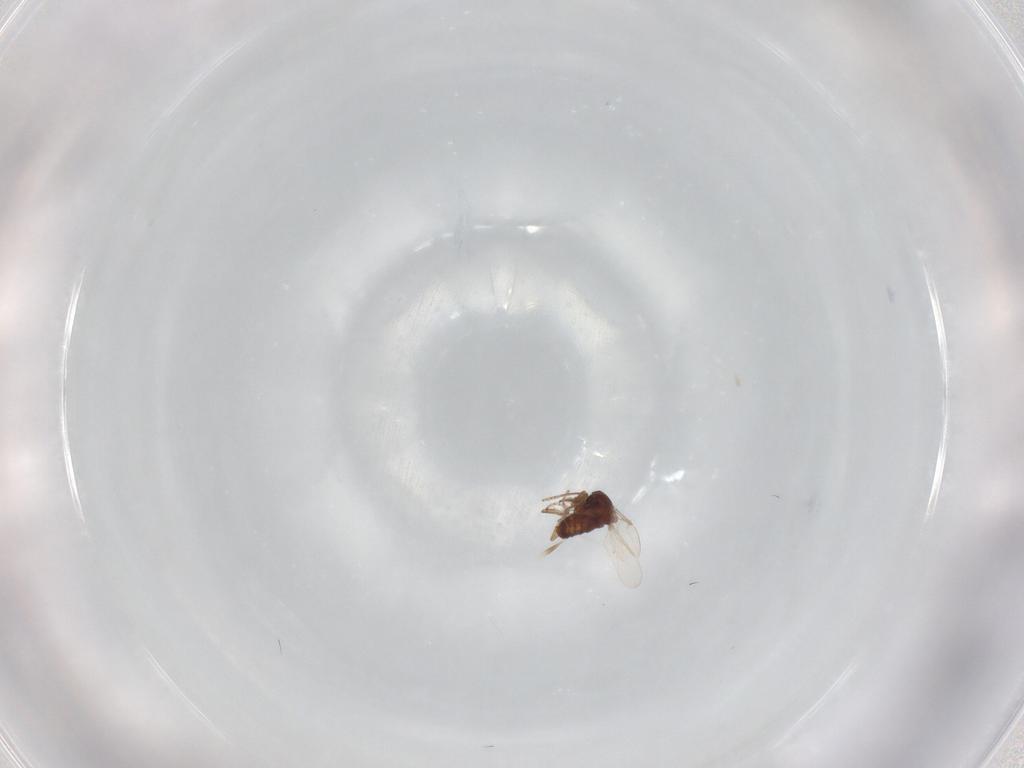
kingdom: Animalia
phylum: Arthropoda
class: Insecta
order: Diptera
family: Ceratopogonidae
